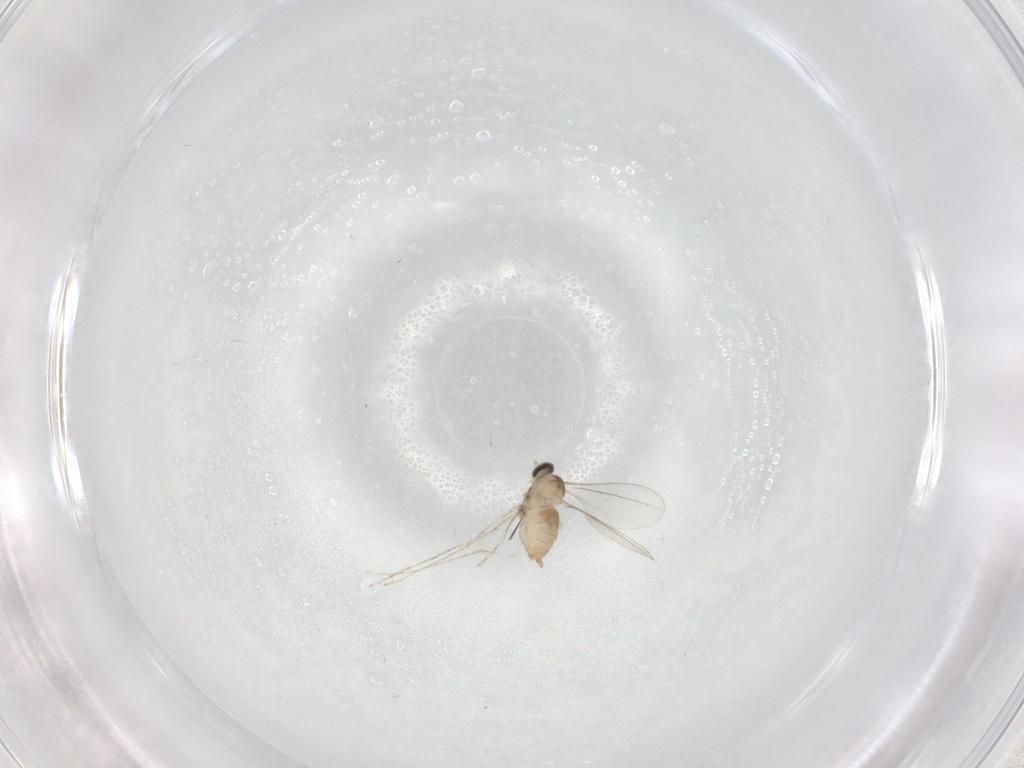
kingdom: Animalia
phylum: Arthropoda
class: Insecta
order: Diptera
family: Cecidomyiidae
